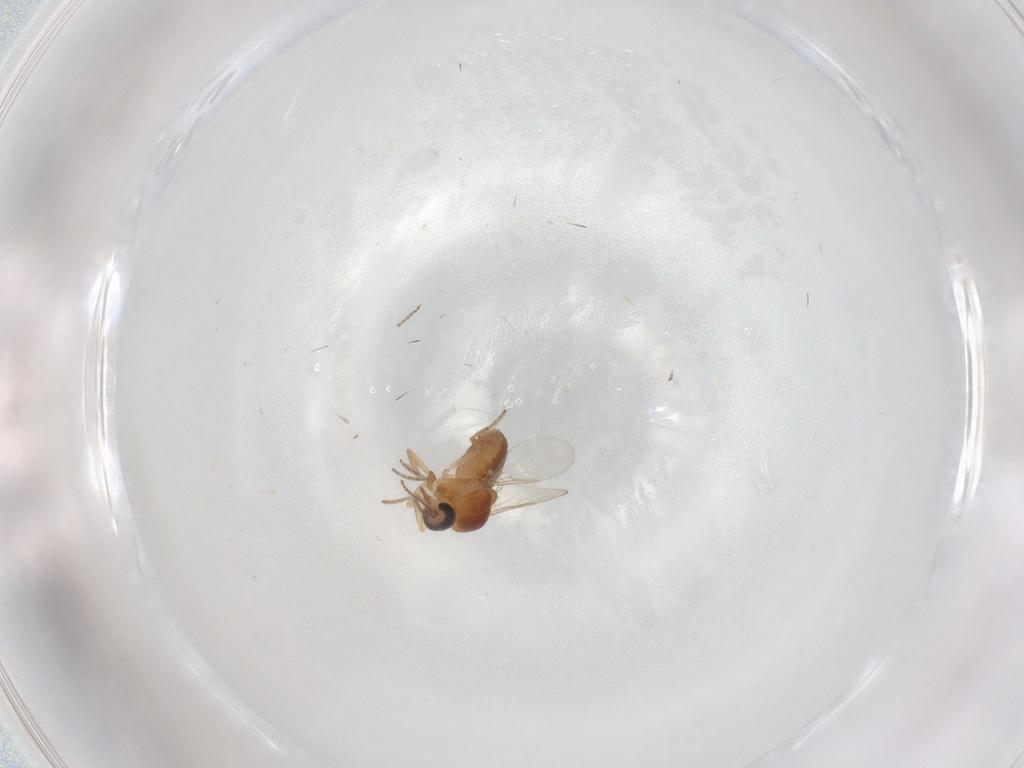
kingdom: Animalia
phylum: Arthropoda
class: Insecta
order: Diptera
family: Ceratopogonidae
